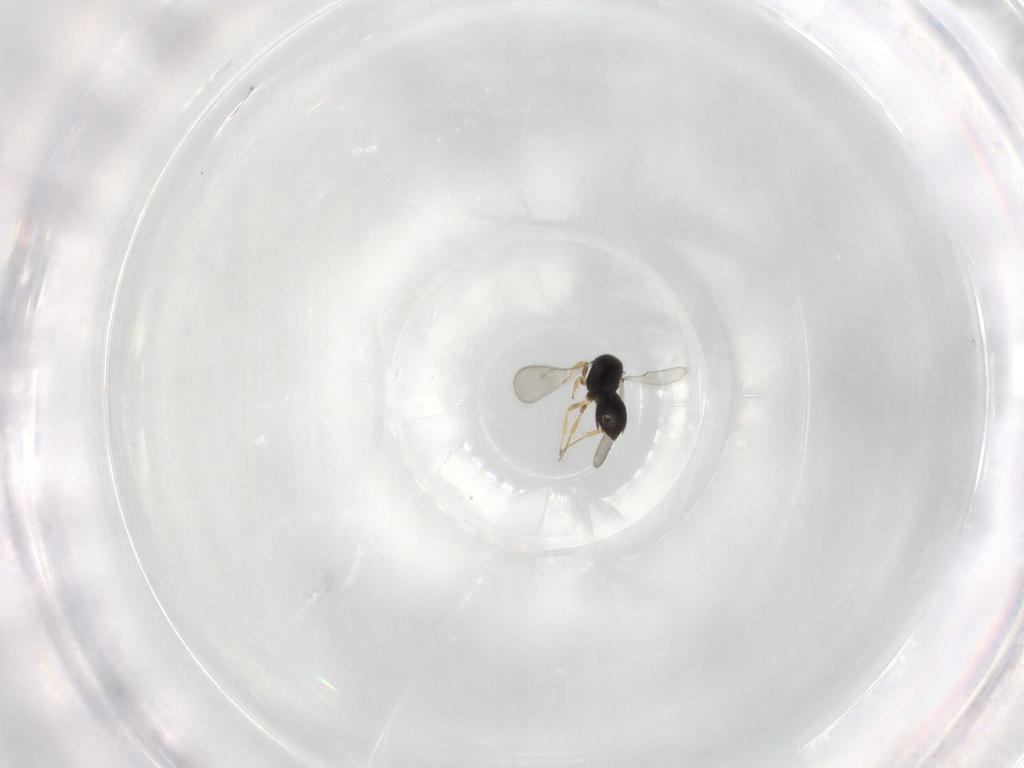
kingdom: Animalia
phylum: Arthropoda
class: Insecta
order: Hymenoptera
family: Scelionidae
